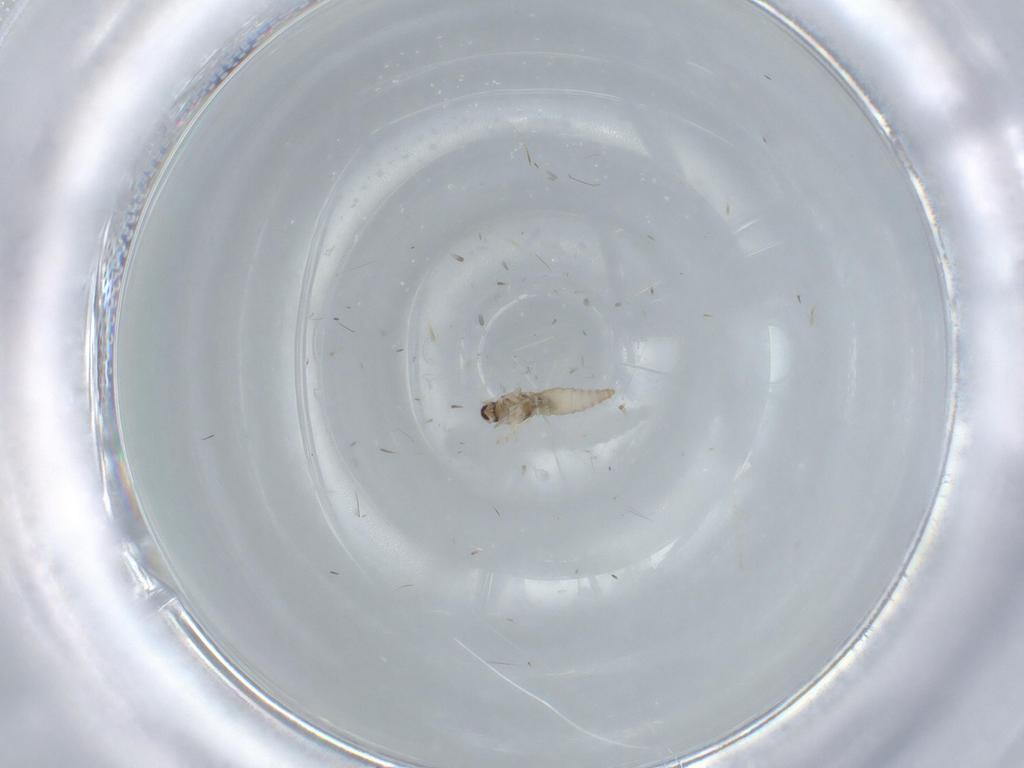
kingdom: Animalia
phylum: Arthropoda
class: Insecta
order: Diptera
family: Cecidomyiidae
